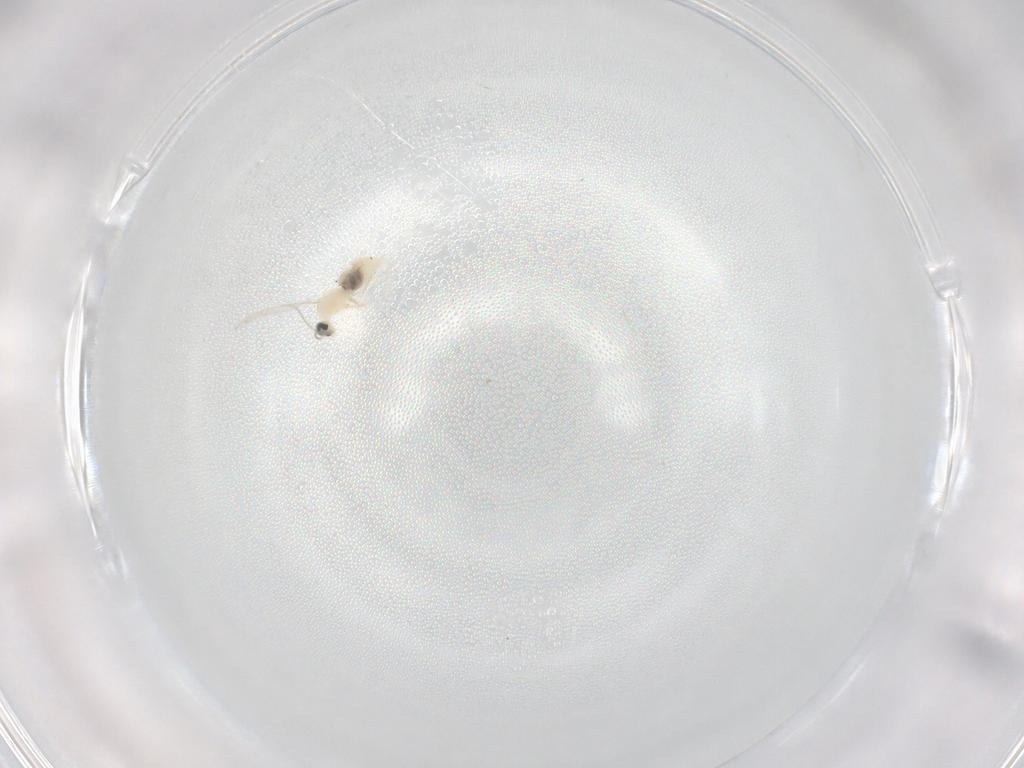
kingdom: Animalia
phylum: Arthropoda
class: Insecta
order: Diptera
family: Cecidomyiidae
